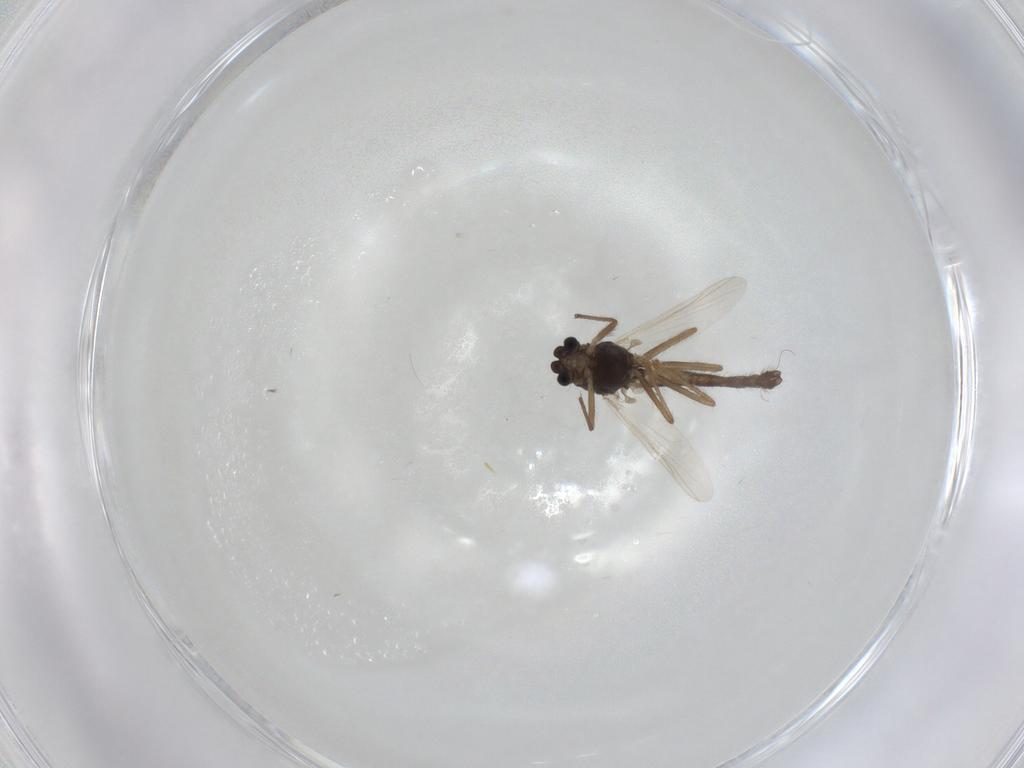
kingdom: Animalia
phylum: Arthropoda
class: Insecta
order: Diptera
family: Chironomidae
